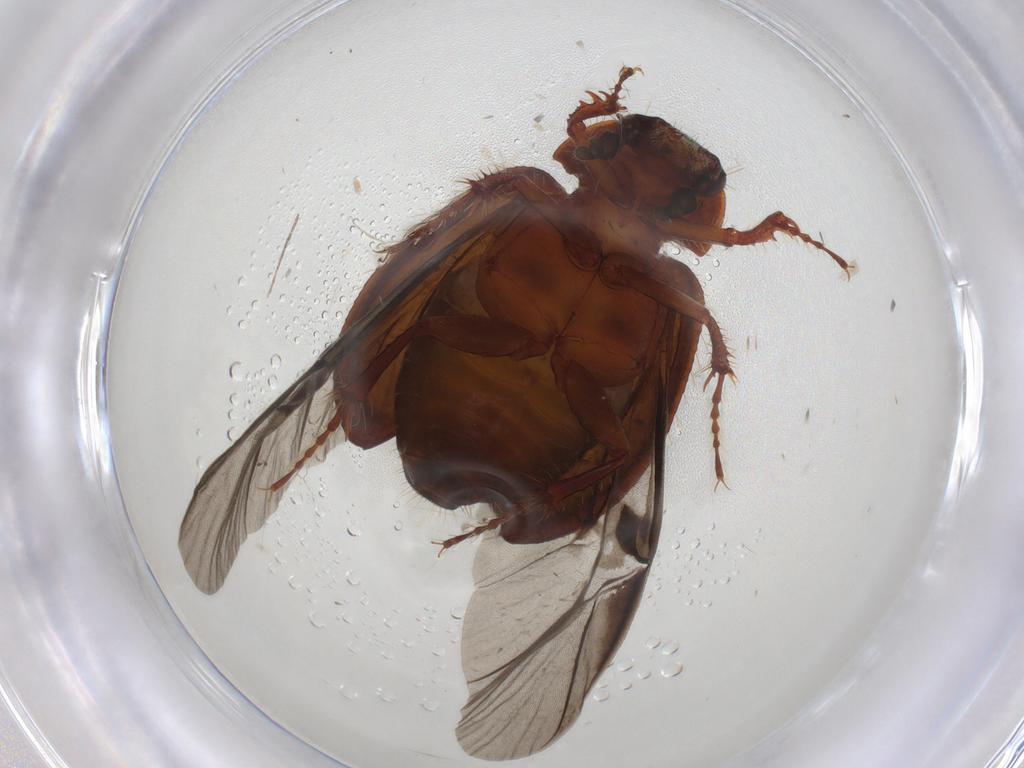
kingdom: Animalia
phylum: Arthropoda
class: Insecta
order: Coleoptera
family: Hybosoridae
